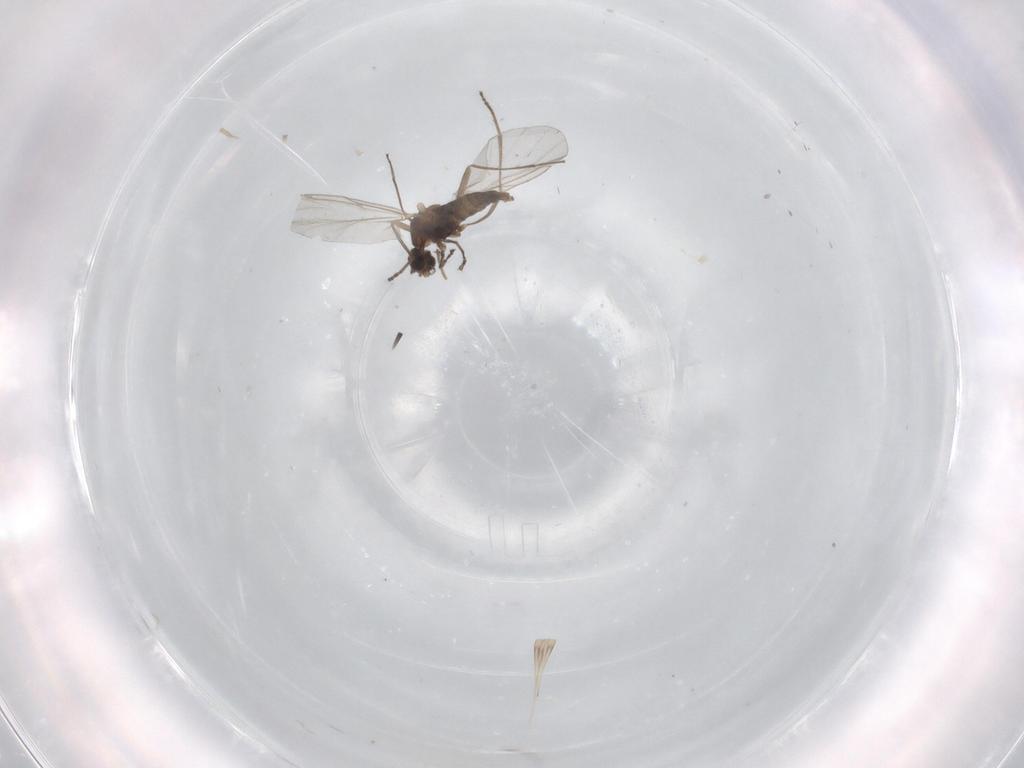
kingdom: Animalia
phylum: Arthropoda
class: Insecta
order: Diptera
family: Cecidomyiidae
